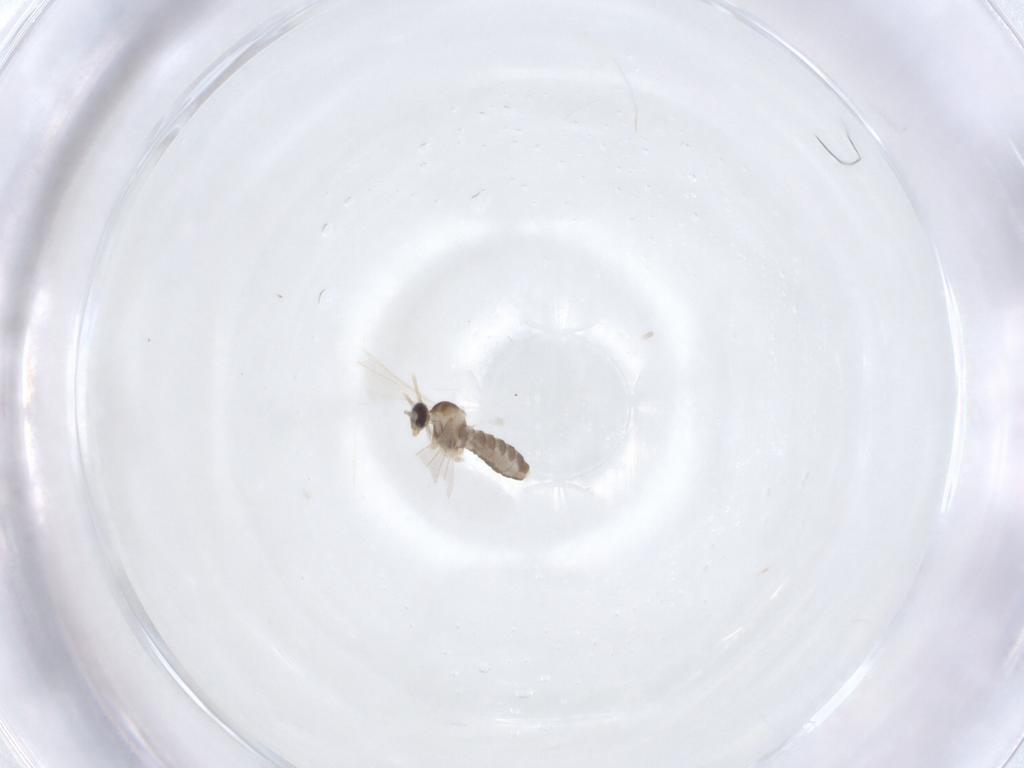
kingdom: Animalia
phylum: Arthropoda
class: Insecta
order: Diptera
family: Cecidomyiidae
